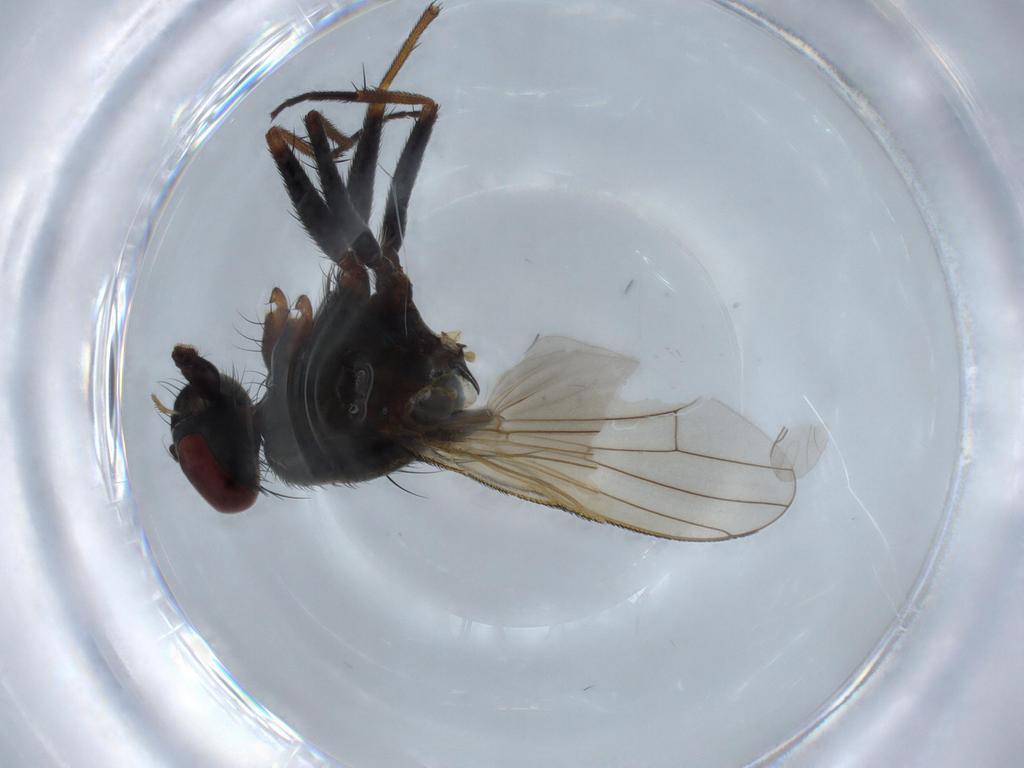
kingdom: Animalia
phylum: Arthropoda
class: Insecta
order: Diptera
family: Muscidae
